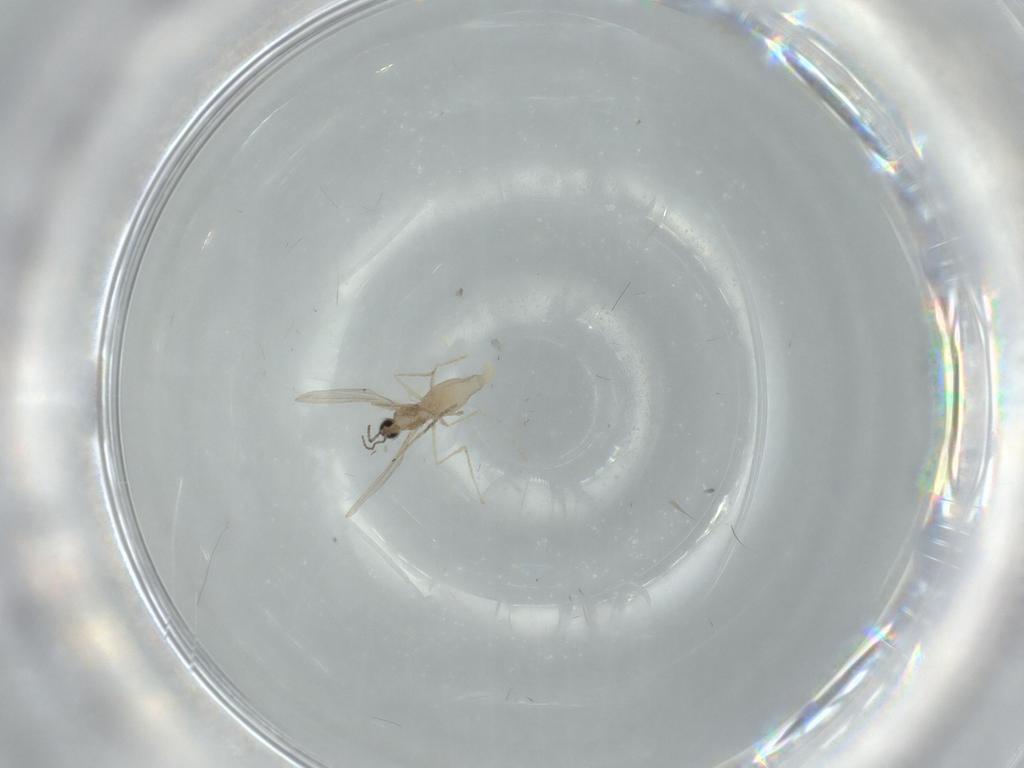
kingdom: Animalia
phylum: Arthropoda
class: Insecta
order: Diptera
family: Cecidomyiidae
